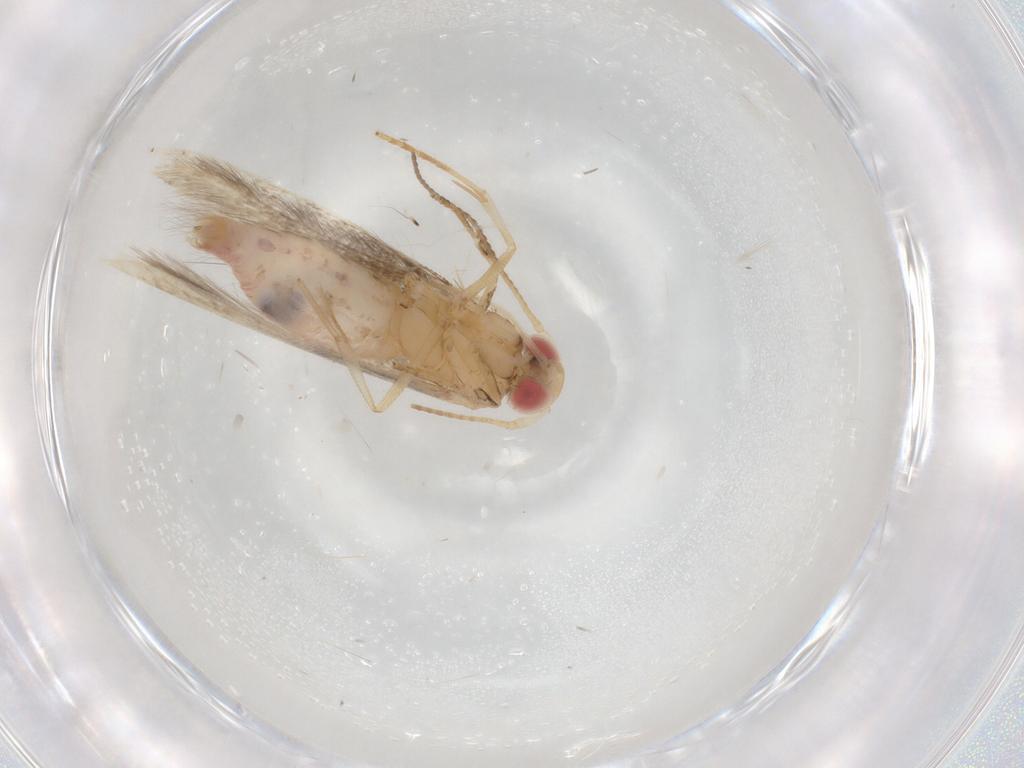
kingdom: Animalia
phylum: Arthropoda
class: Insecta
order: Lepidoptera
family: Cosmopterigidae
